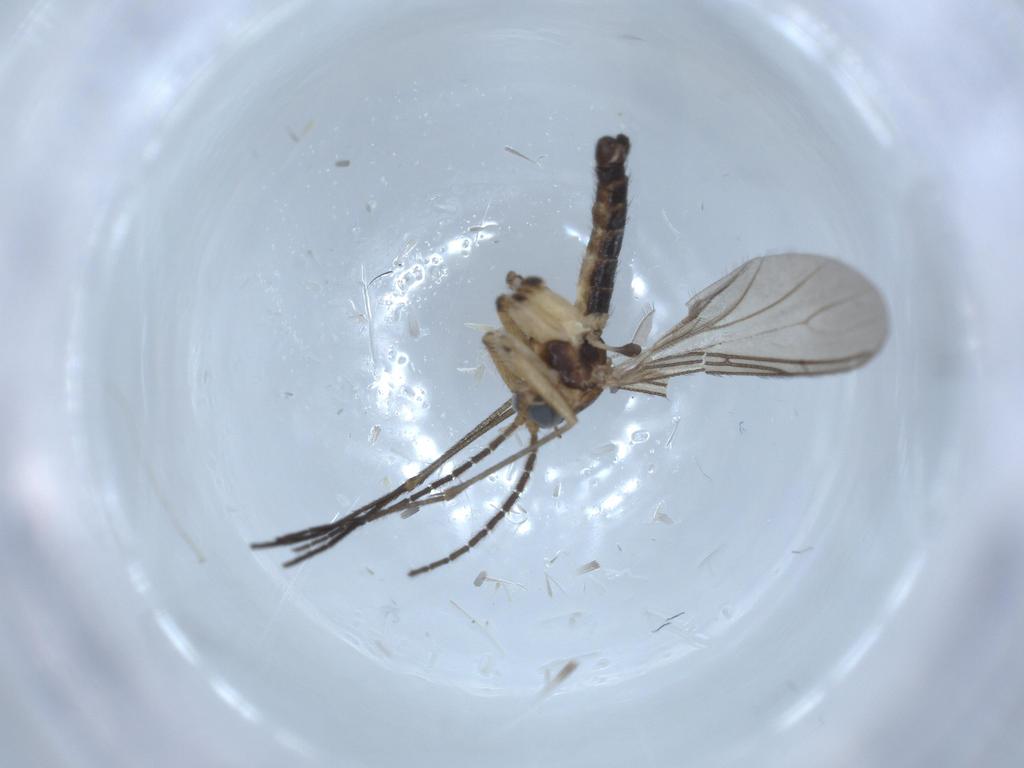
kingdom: Animalia
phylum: Arthropoda
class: Insecta
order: Diptera
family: Sciaridae
